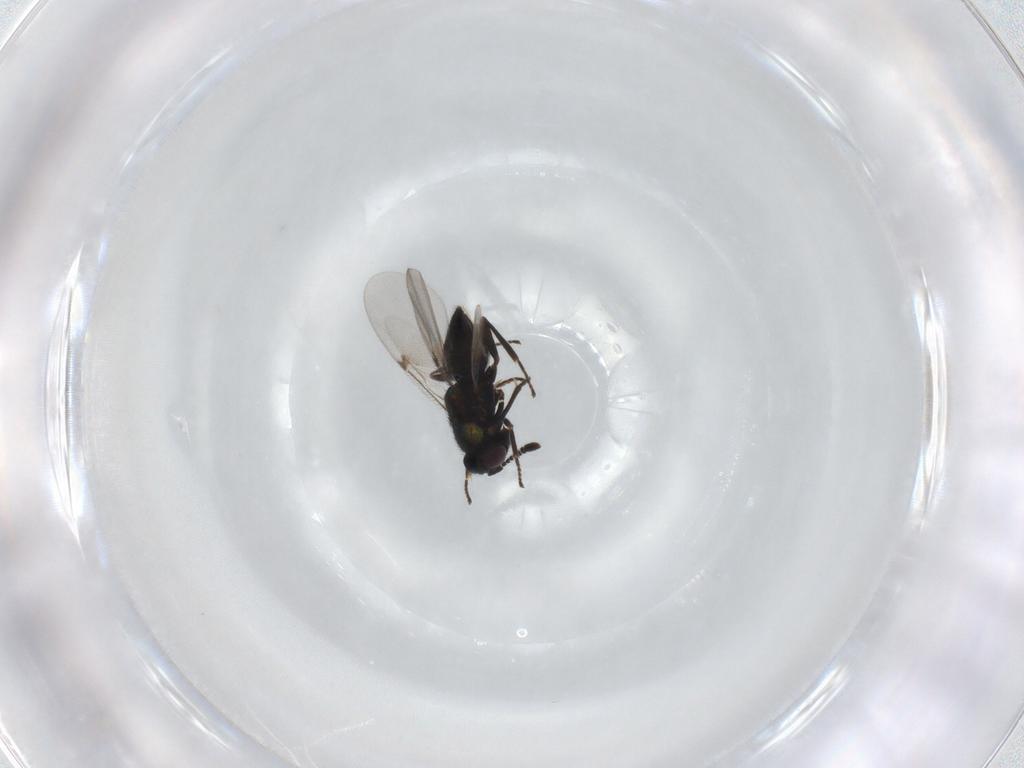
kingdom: Animalia
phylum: Arthropoda
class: Insecta
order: Hymenoptera
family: Encyrtidae
